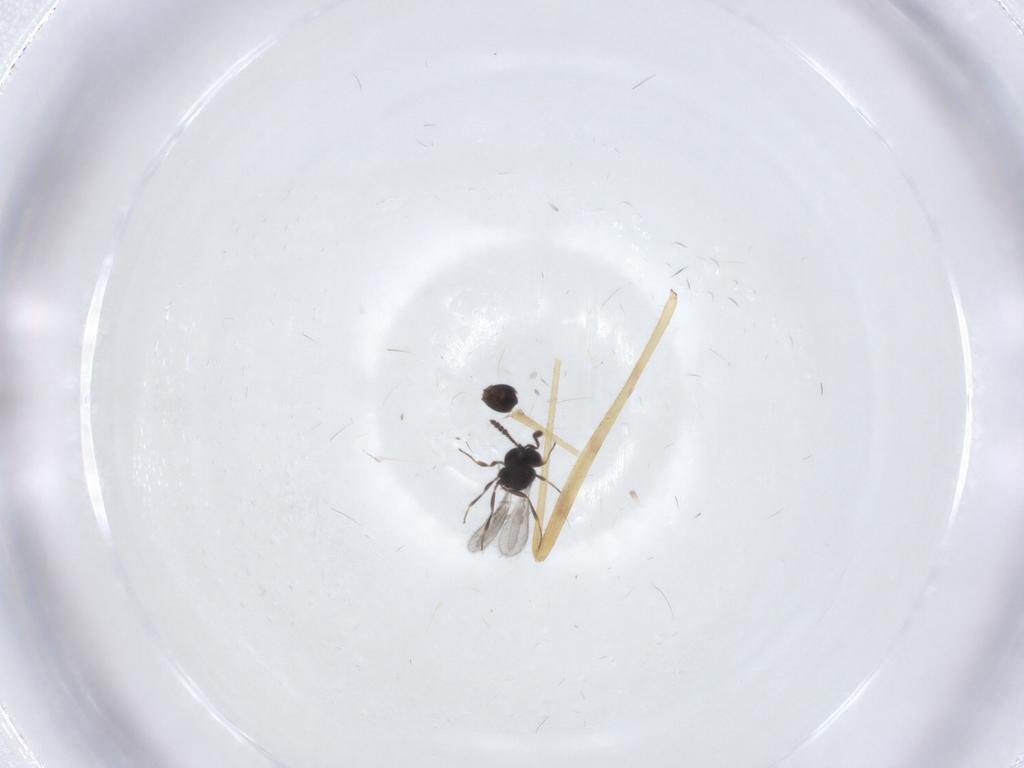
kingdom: Animalia
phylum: Arthropoda
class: Insecta
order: Hymenoptera
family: Scelionidae
